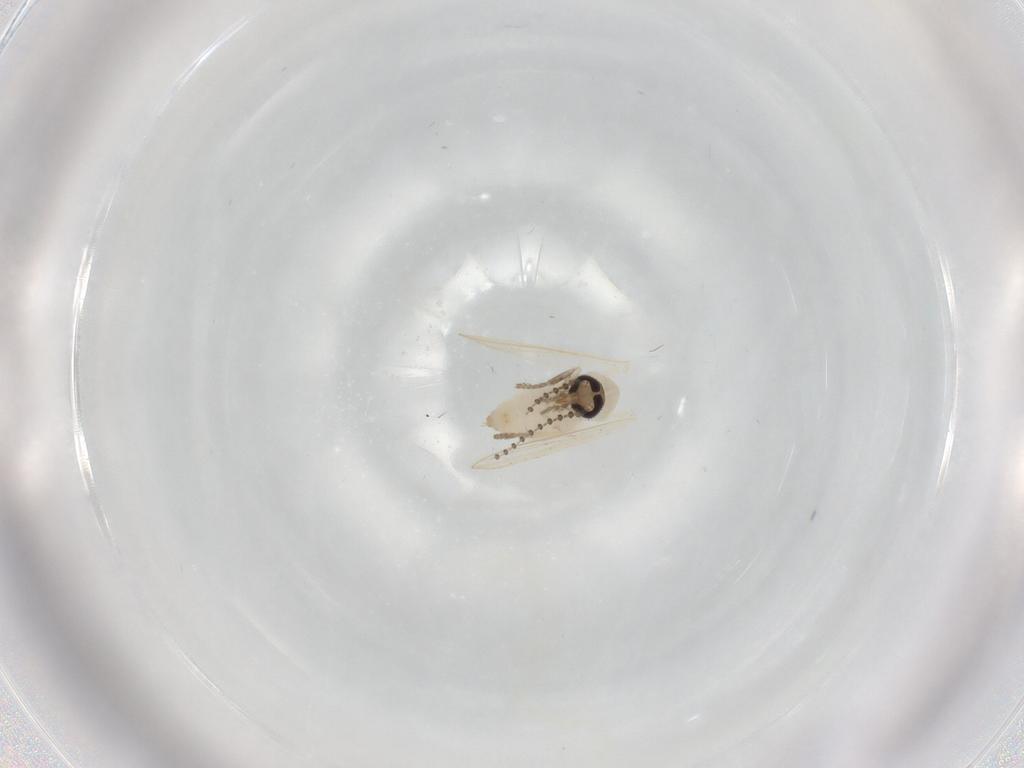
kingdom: Animalia
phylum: Arthropoda
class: Insecta
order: Diptera
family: Psychodidae
